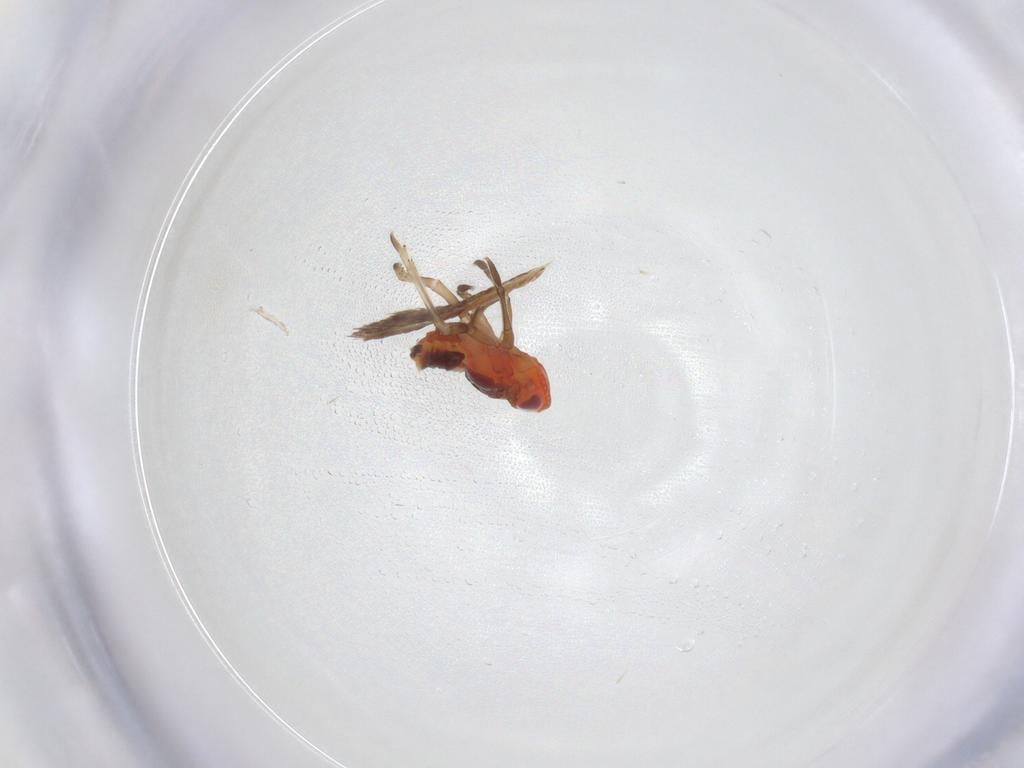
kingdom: Animalia
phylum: Arthropoda
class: Insecta
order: Hemiptera
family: Fulgoroidea_incertae_sedis
